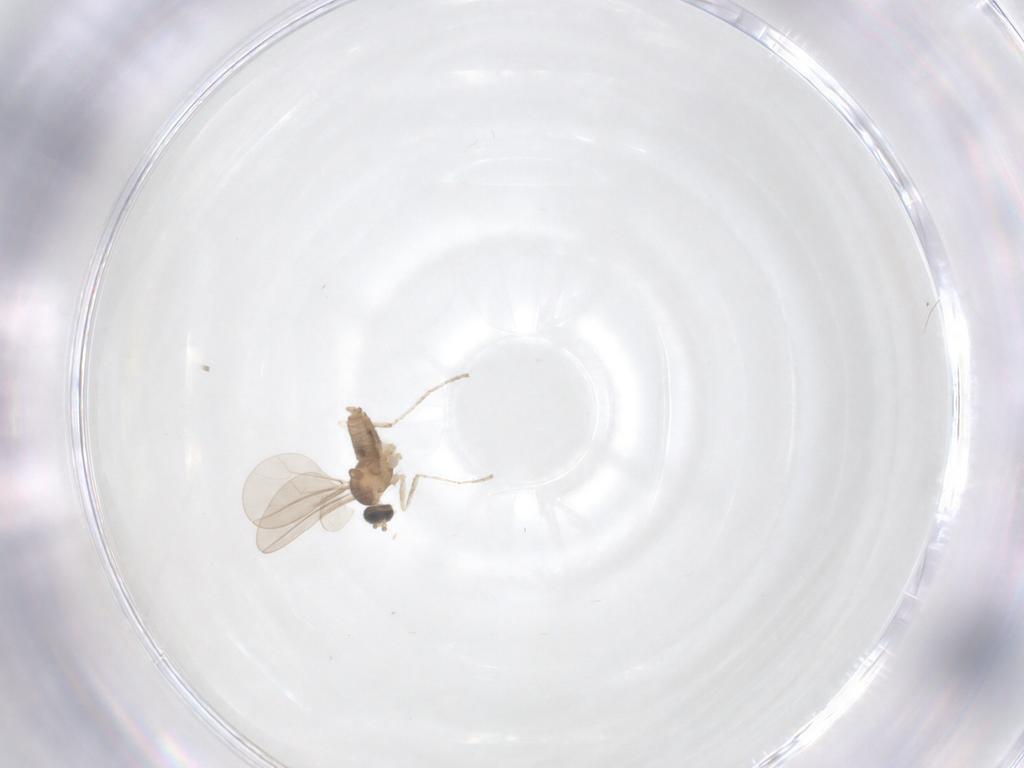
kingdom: Animalia
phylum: Arthropoda
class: Insecta
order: Diptera
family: Cecidomyiidae
